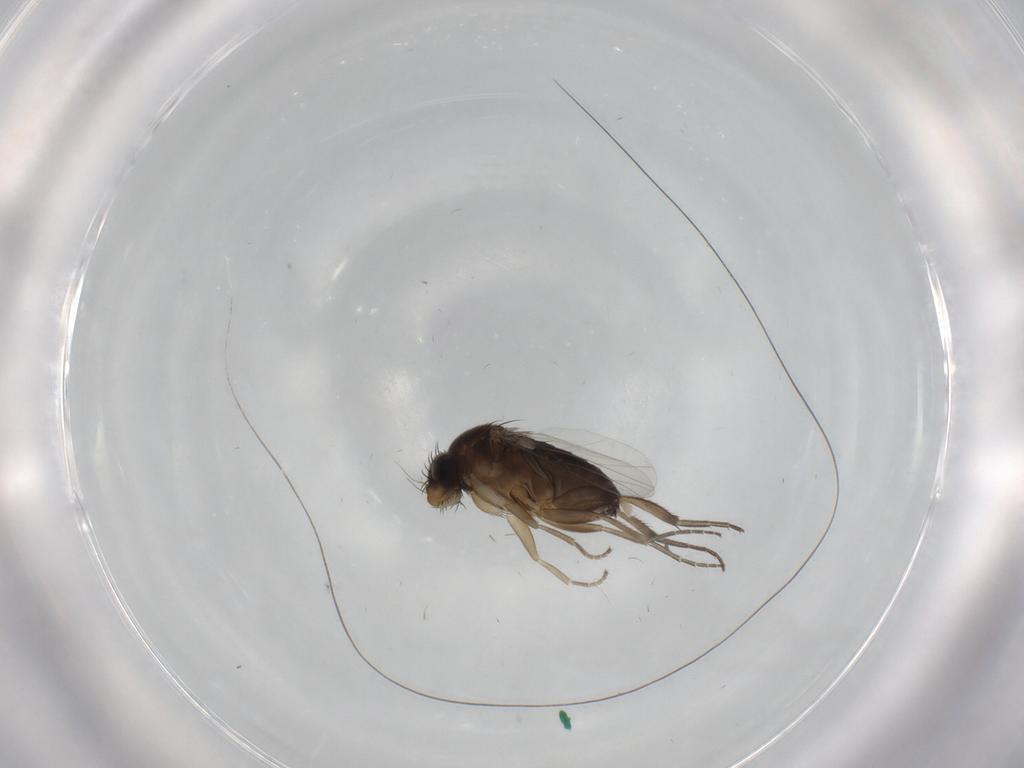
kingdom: Animalia
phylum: Arthropoda
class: Insecta
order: Diptera
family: Phoridae
